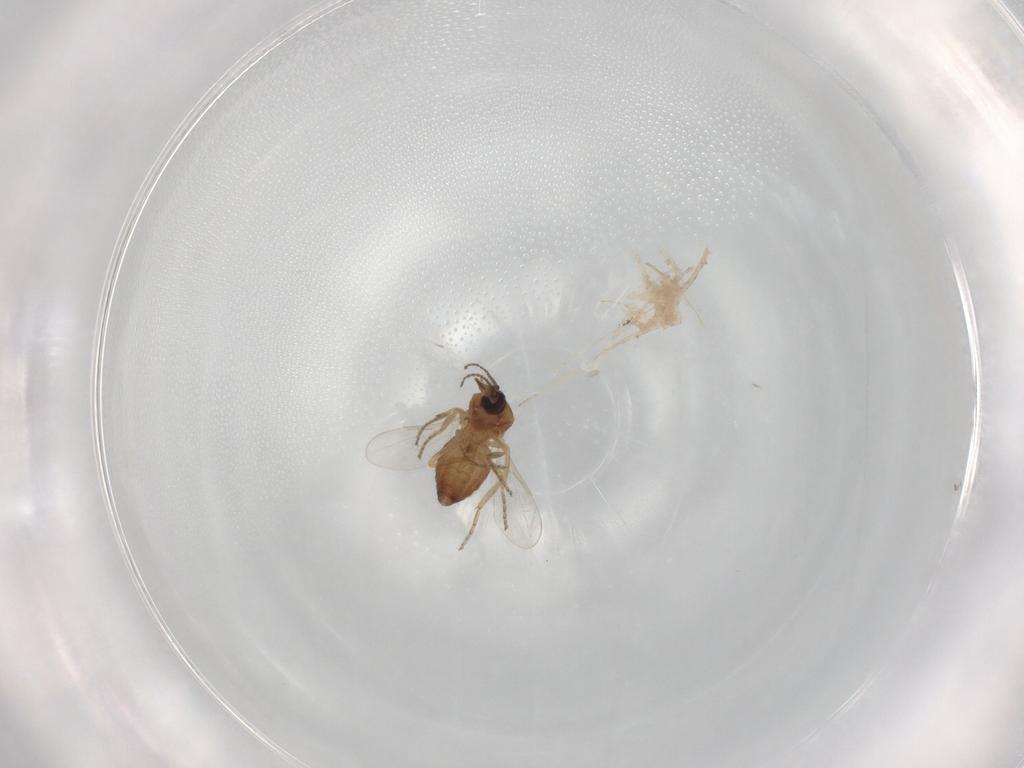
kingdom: Animalia
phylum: Arthropoda
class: Insecta
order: Diptera
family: Ceratopogonidae
